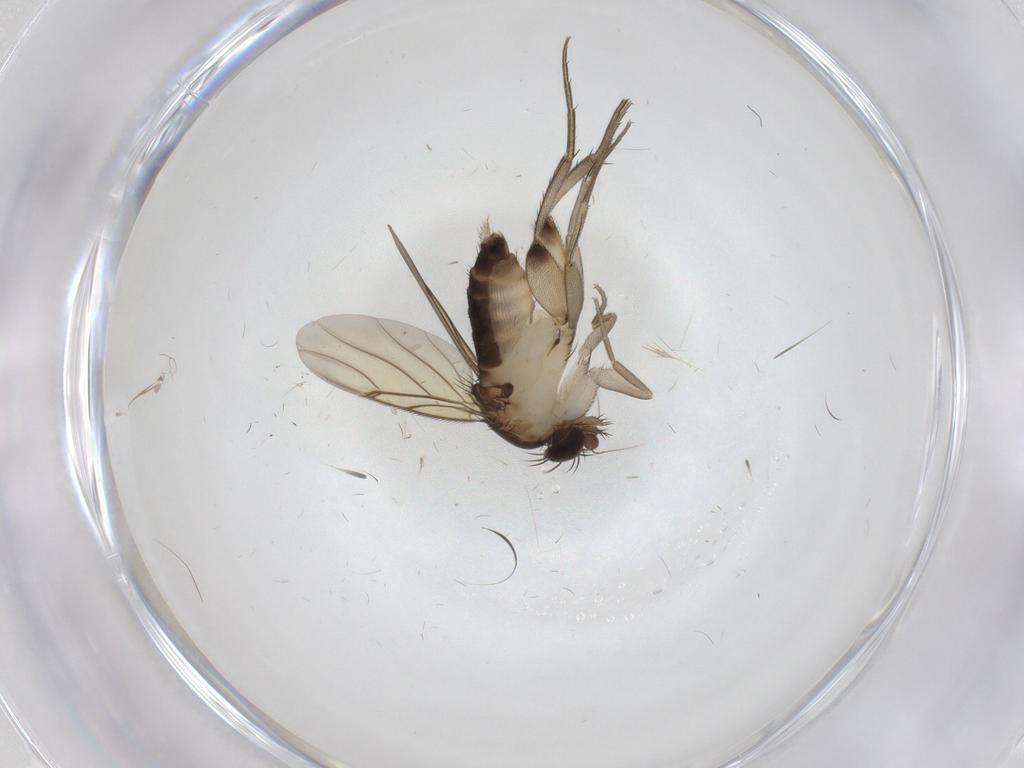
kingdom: Animalia
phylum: Arthropoda
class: Insecta
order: Diptera
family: Phoridae
